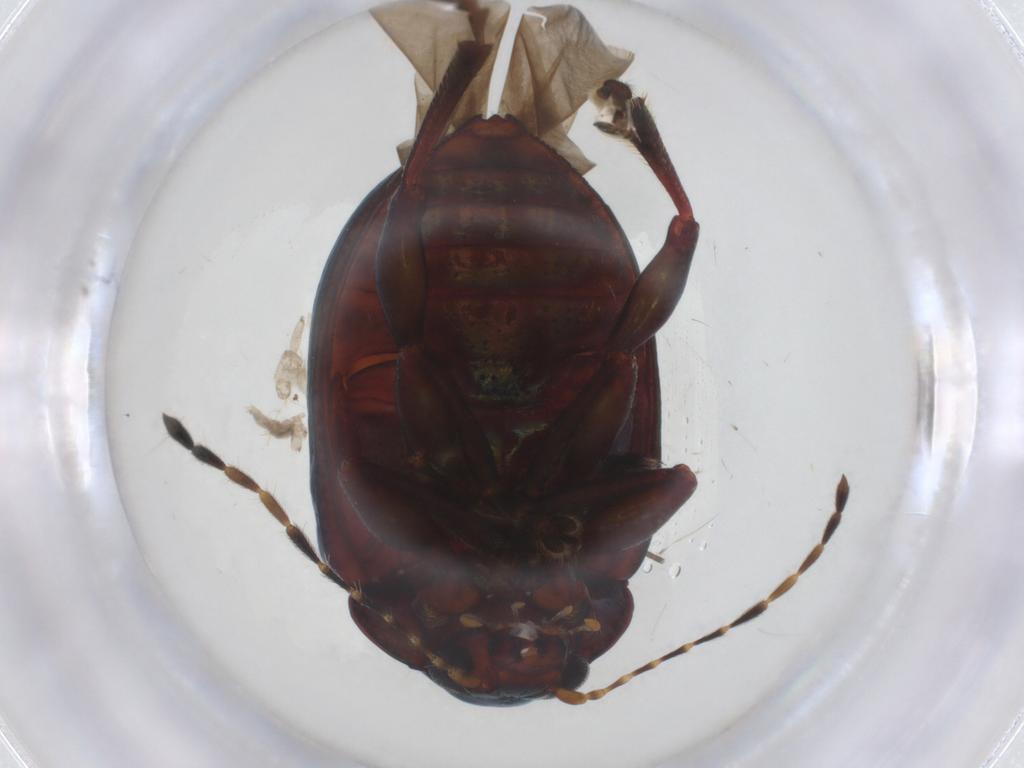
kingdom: Animalia
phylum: Arthropoda
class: Insecta
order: Coleoptera
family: Chrysomelidae
